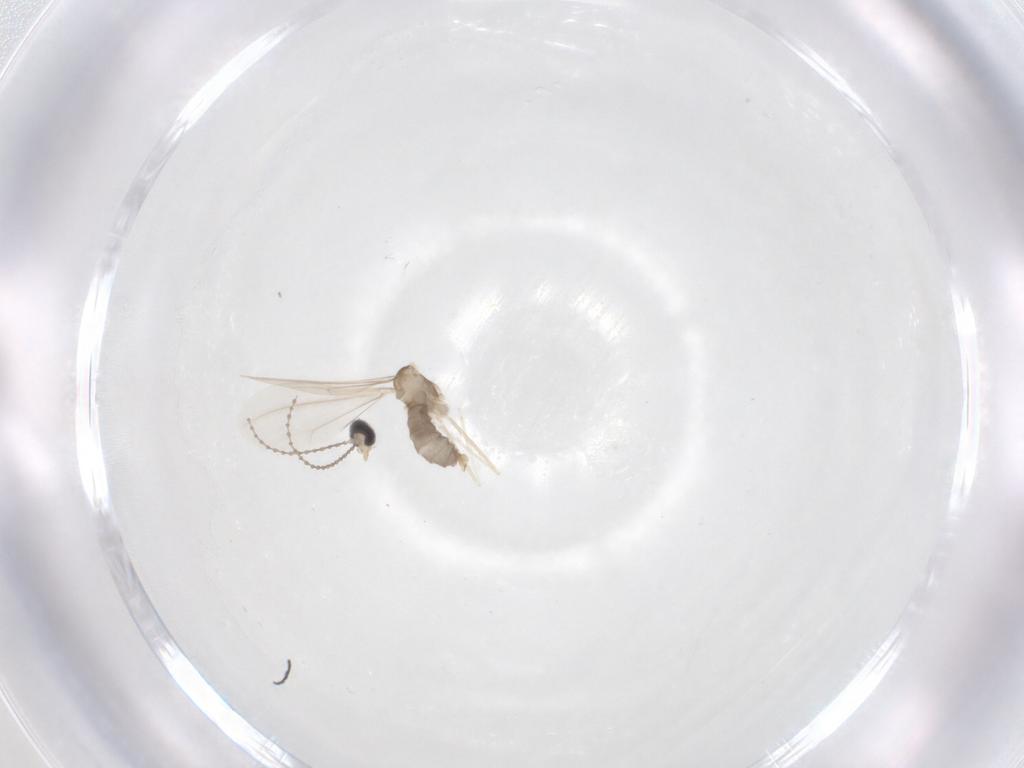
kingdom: Animalia
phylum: Arthropoda
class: Insecta
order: Diptera
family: Cecidomyiidae
